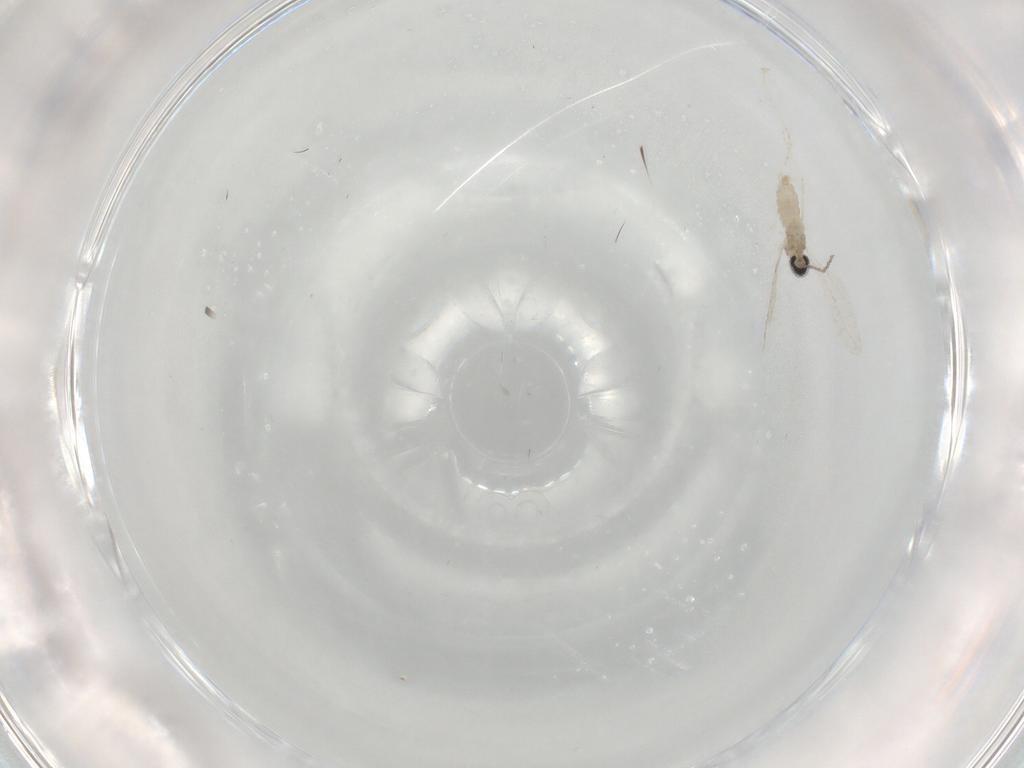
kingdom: Animalia
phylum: Arthropoda
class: Insecta
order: Diptera
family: Cecidomyiidae
